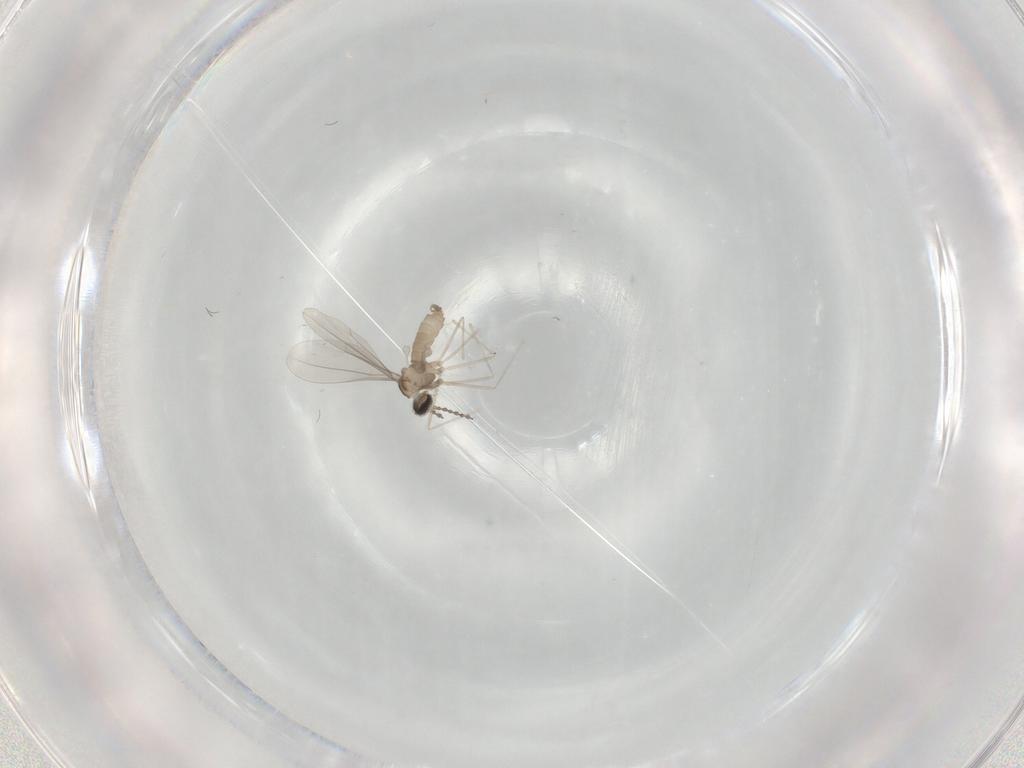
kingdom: Animalia
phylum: Arthropoda
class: Insecta
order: Diptera
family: Cecidomyiidae
